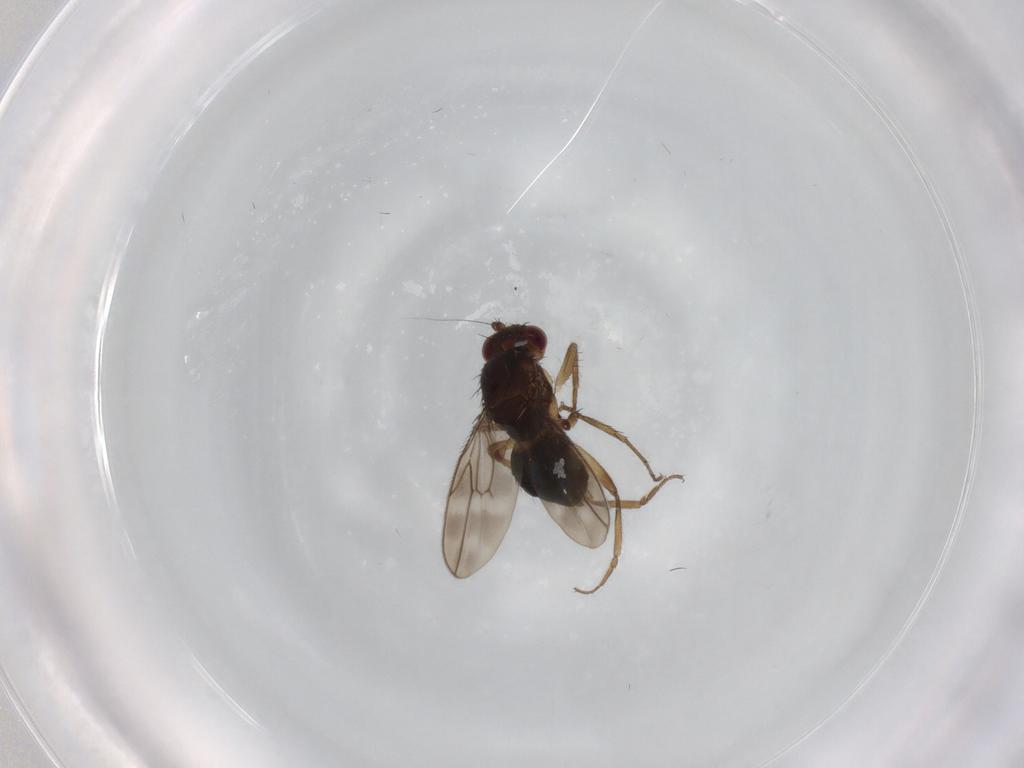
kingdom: Animalia
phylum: Arthropoda
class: Insecta
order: Diptera
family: Sphaeroceridae
